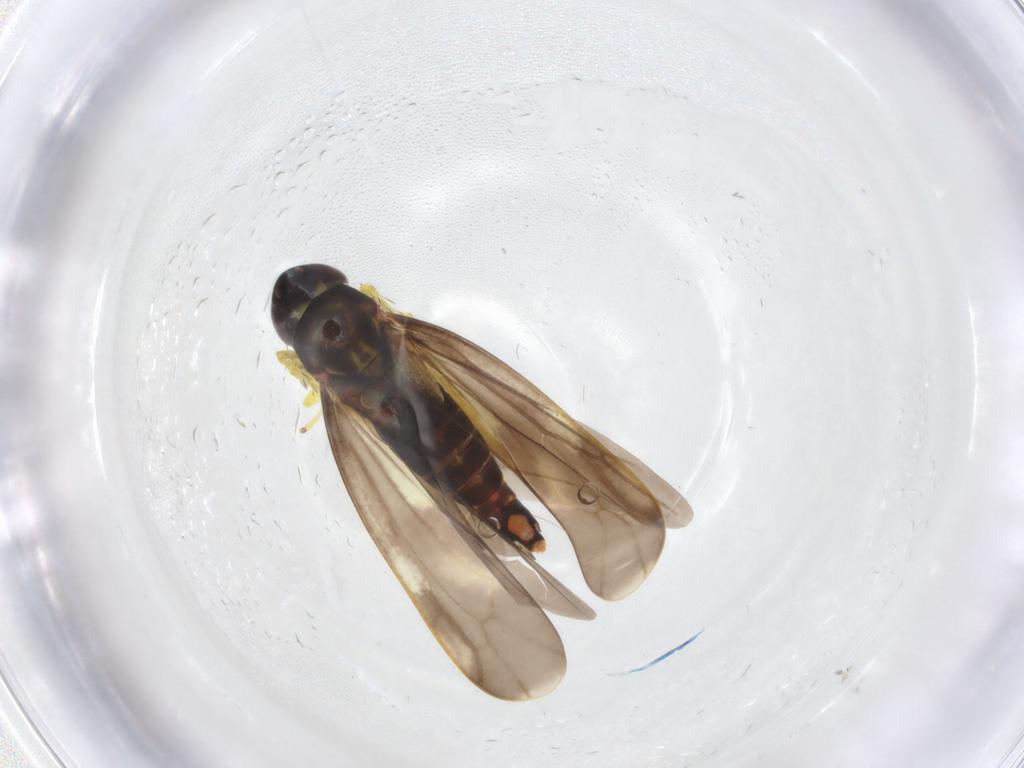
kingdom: Animalia
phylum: Arthropoda
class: Insecta
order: Hemiptera
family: Cicadellidae
